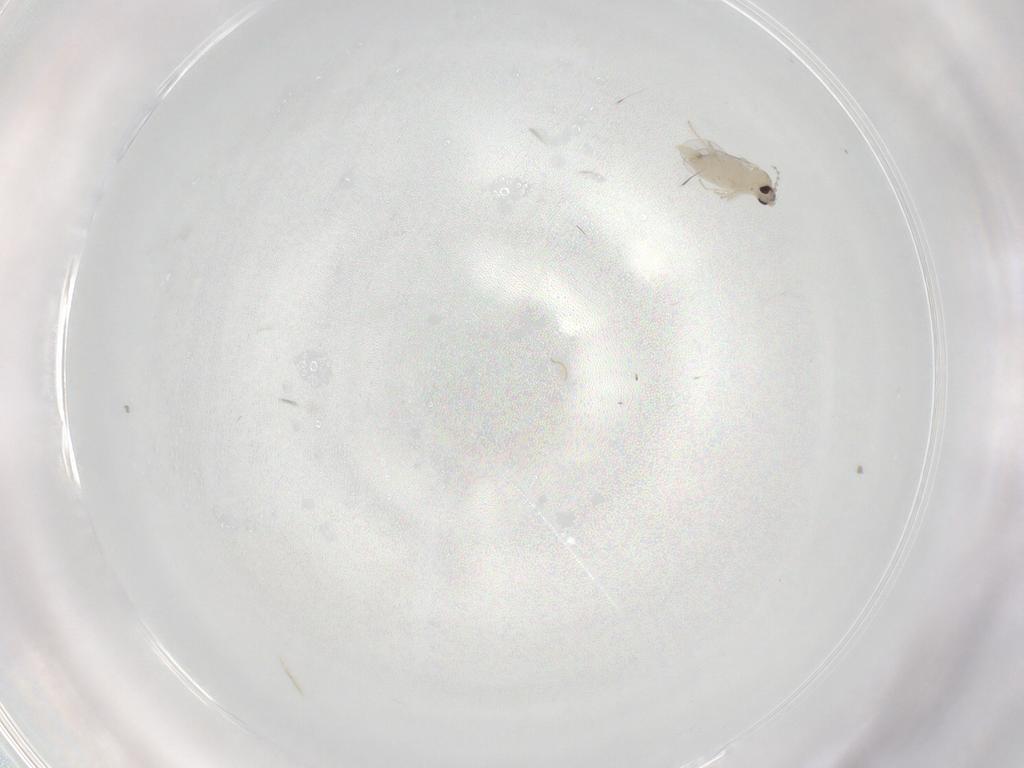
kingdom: Animalia
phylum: Arthropoda
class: Insecta
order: Diptera
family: Cecidomyiidae
